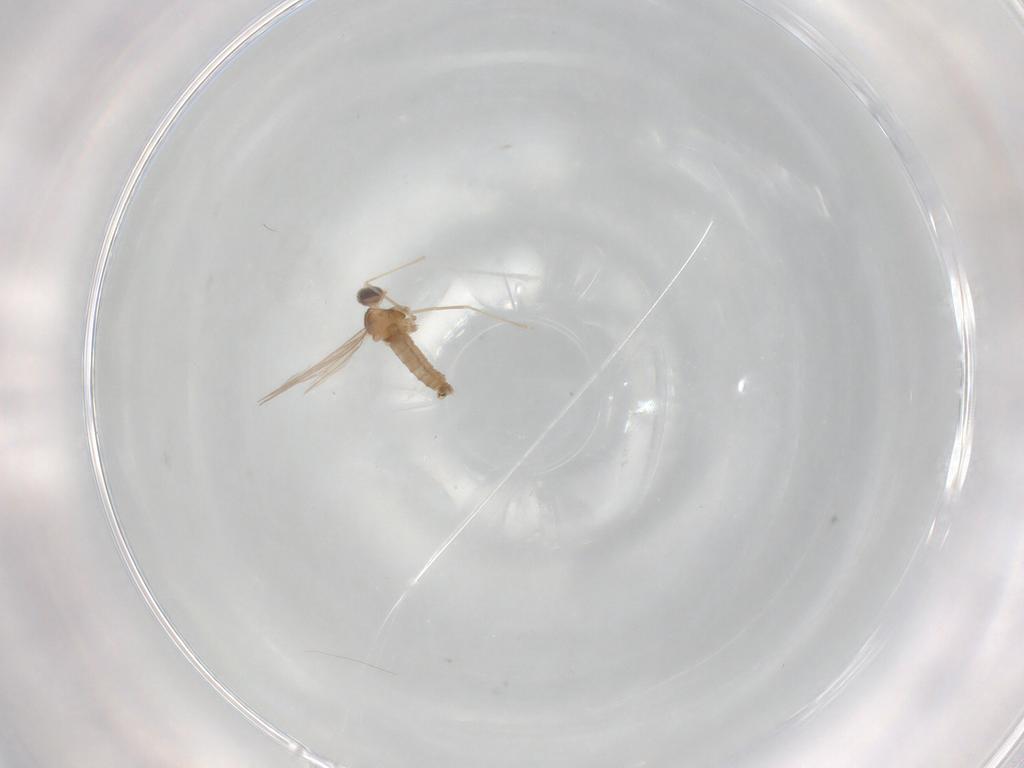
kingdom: Animalia
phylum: Arthropoda
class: Insecta
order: Diptera
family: Cecidomyiidae
